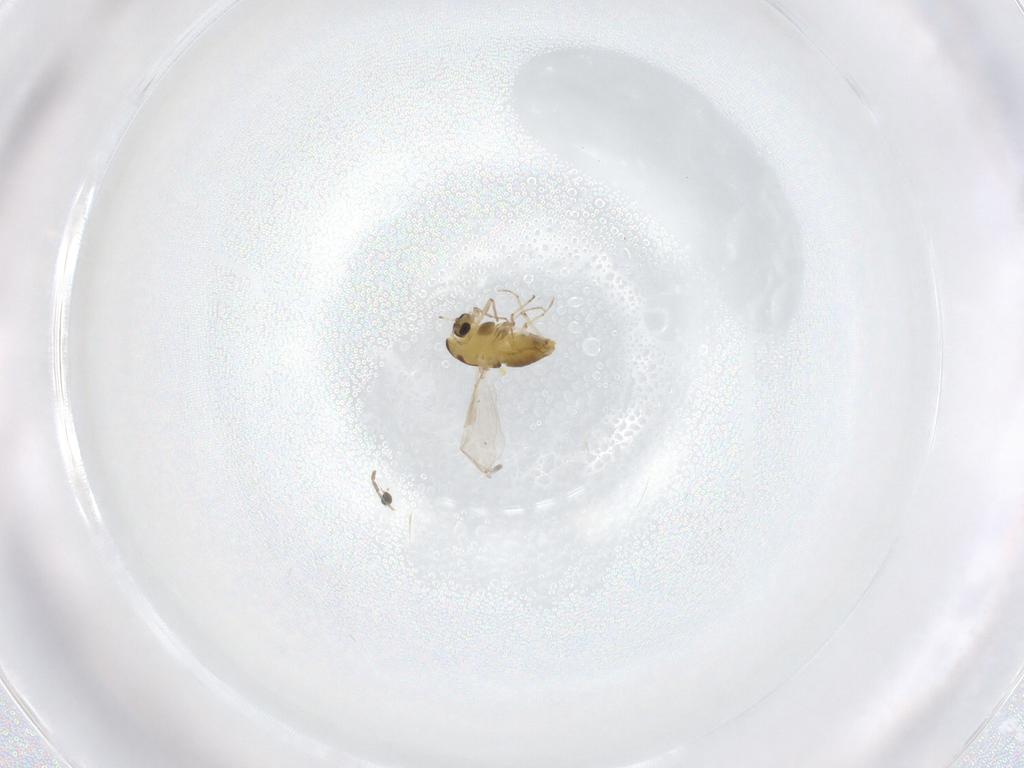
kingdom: Animalia
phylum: Arthropoda
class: Insecta
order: Diptera
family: Chironomidae
